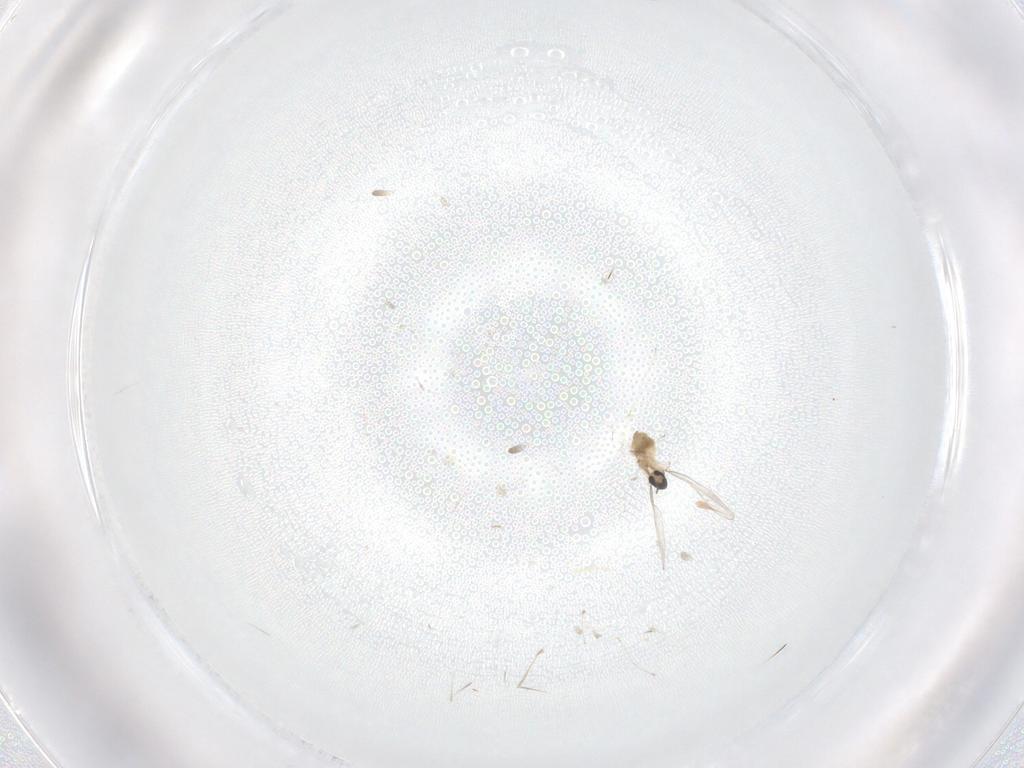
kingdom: Animalia
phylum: Arthropoda
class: Insecta
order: Diptera
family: Cecidomyiidae
